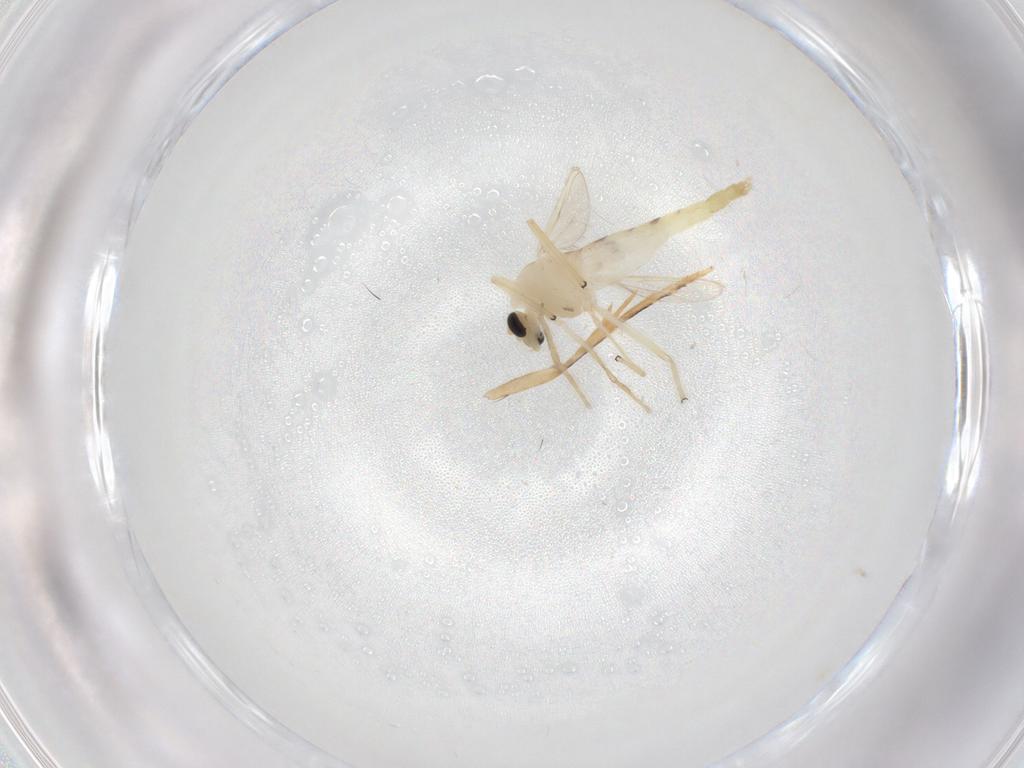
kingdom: Animalia
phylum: Arthropoda
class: Insecta
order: Diptera
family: Chironomidae
